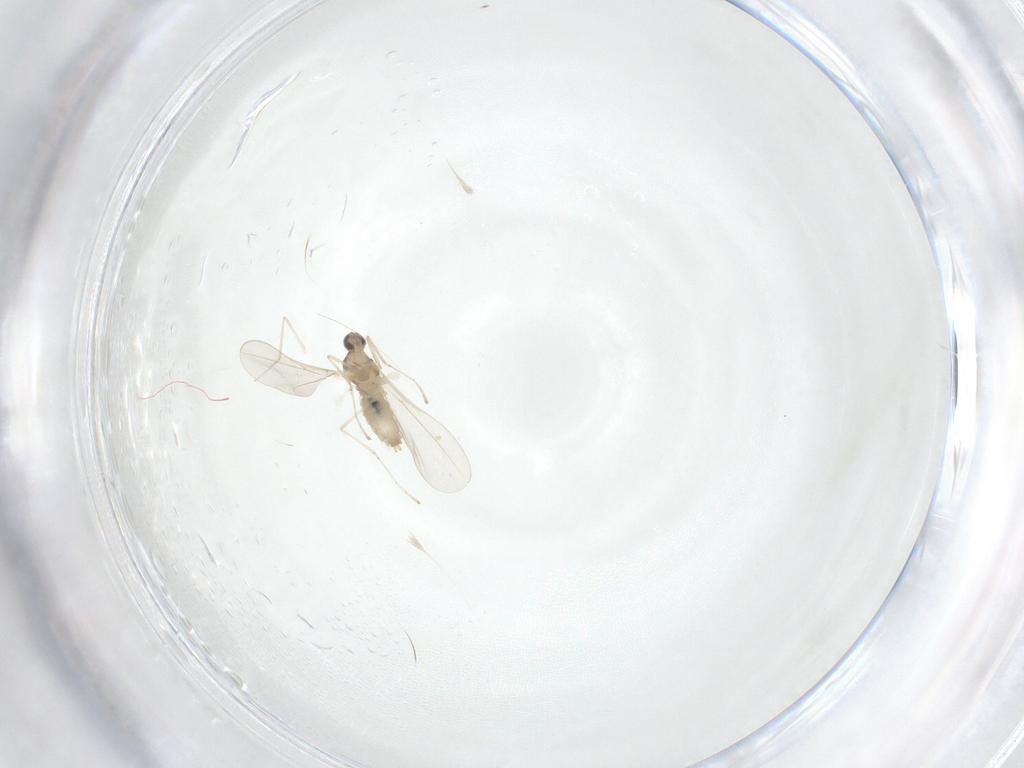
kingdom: Animalia
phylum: Arthropoda
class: Insecta
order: Diptera
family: Cecidomyiidae
